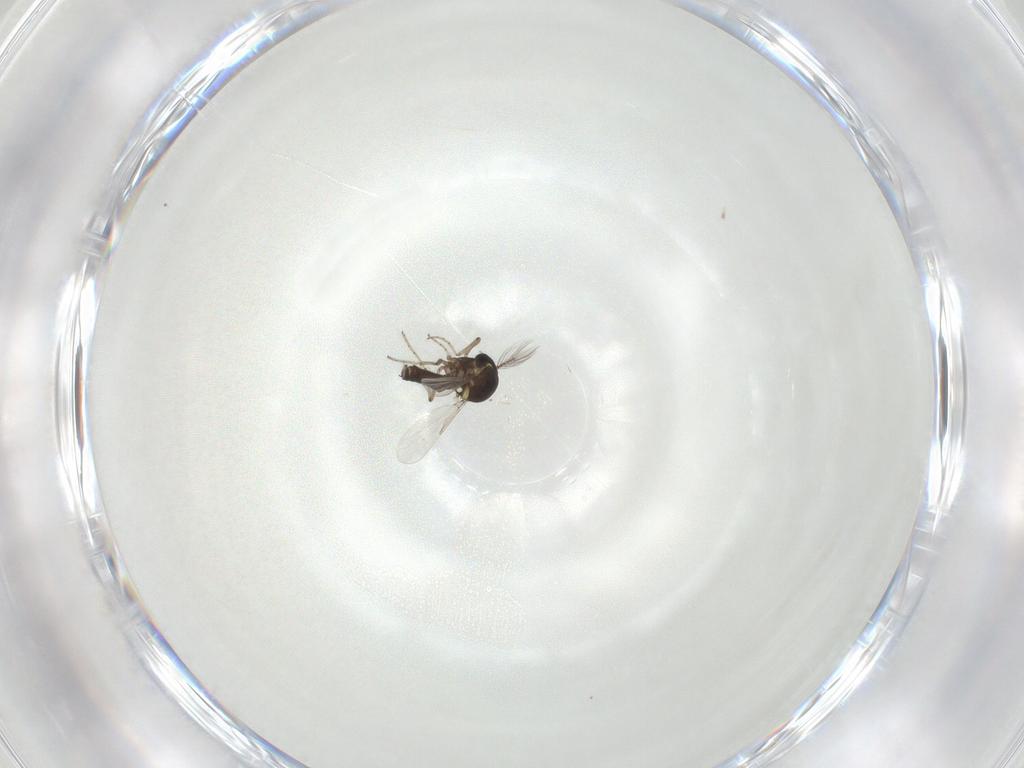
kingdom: Animalia
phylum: Arthropoda
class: Insecta
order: Diptera
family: Ceratopogonidae
